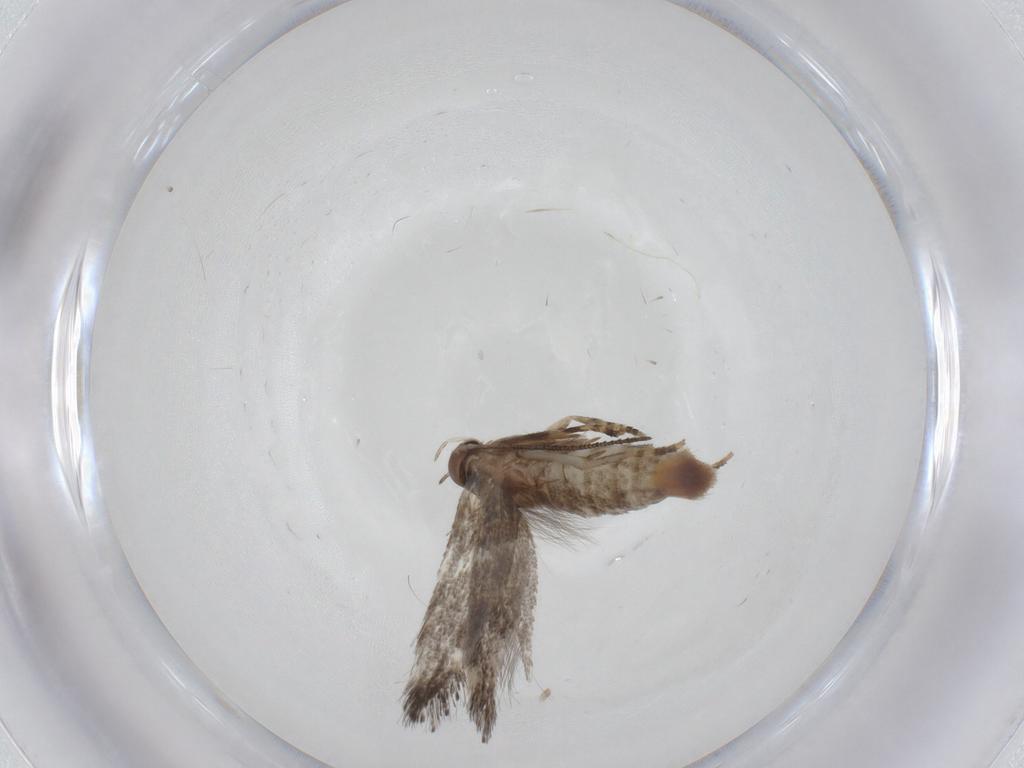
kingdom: Animalia
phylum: Arthropoda
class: Insecta
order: Lepidoptera
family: Elachistidae
